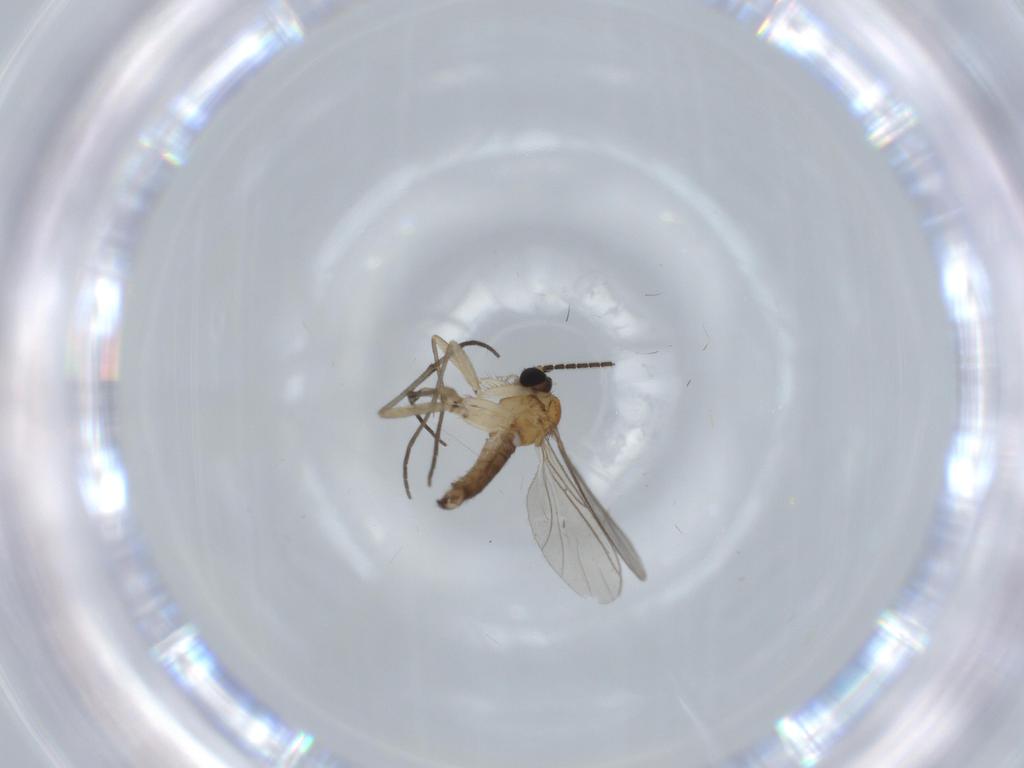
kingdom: Animalia
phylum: Arthropoda
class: Insecta
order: Diptera
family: Sciaridae
